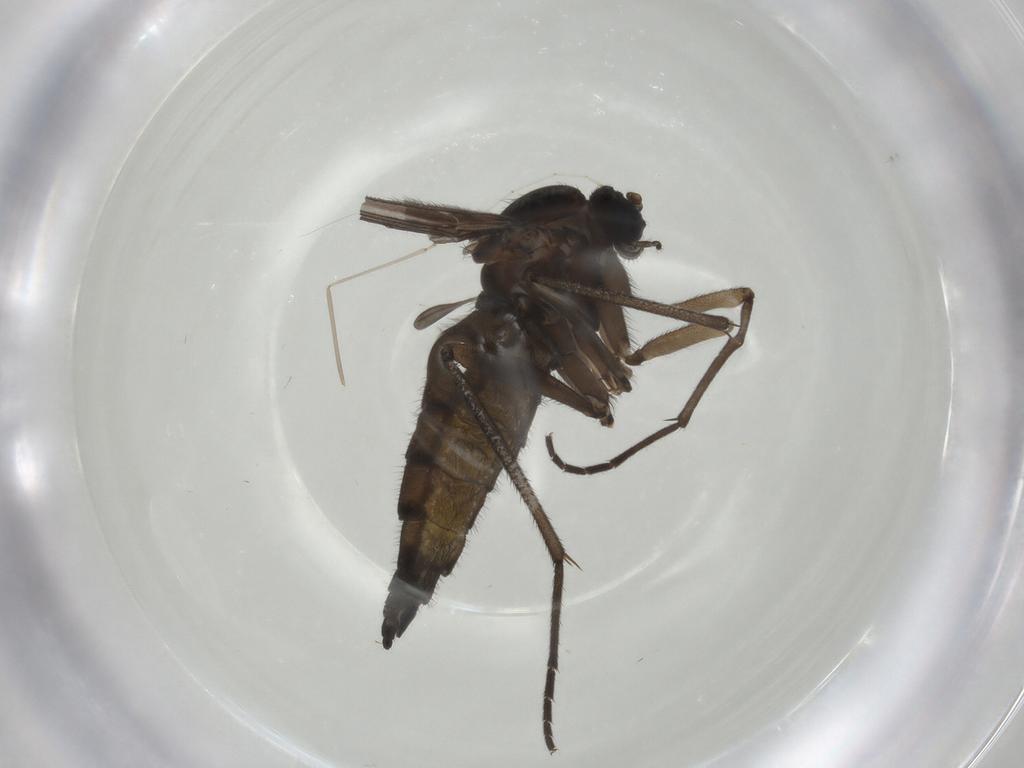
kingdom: Animalia
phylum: Arthropoda
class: Insecta
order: Diptera
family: Sciaridae
